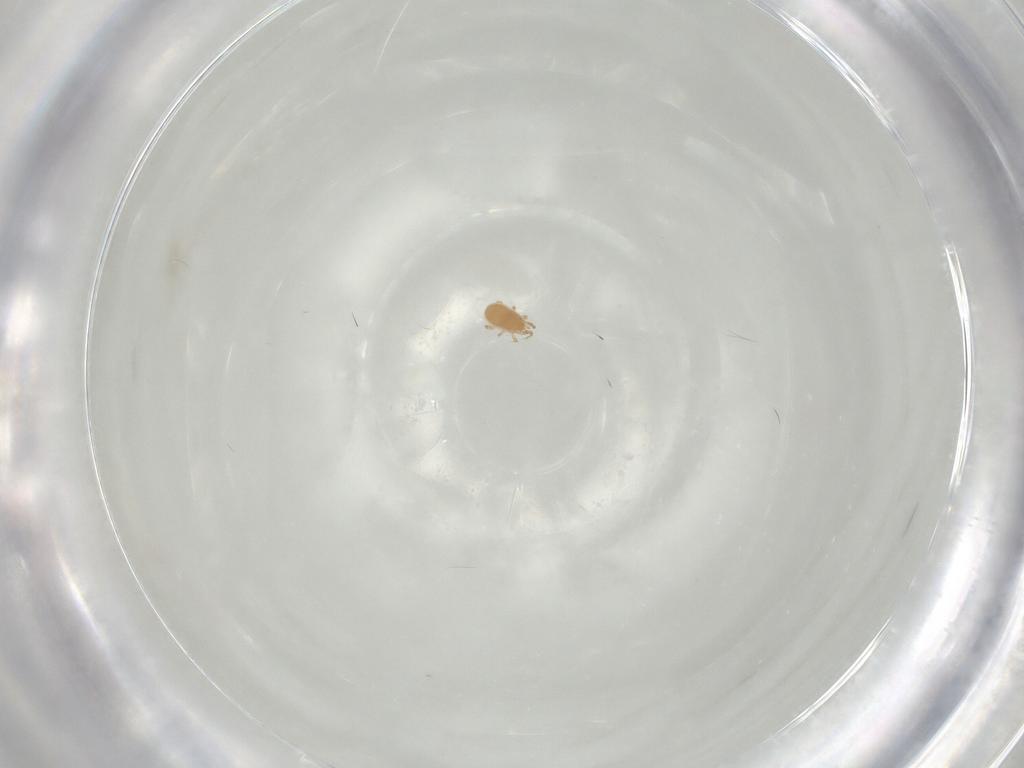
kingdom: Animalia
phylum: Arthropoda
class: Arachnida
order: Mesostigmata
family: Phytoseiidae
